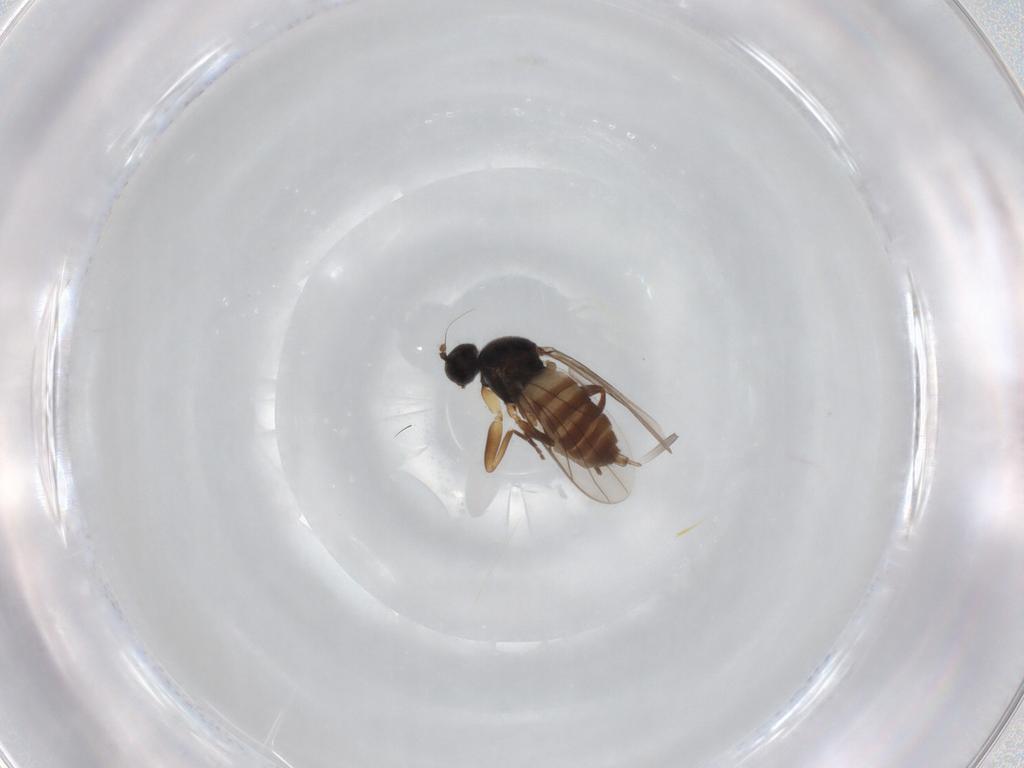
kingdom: Animalia
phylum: Arthropoda
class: Insecta
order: Diptera
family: Hybotidae
